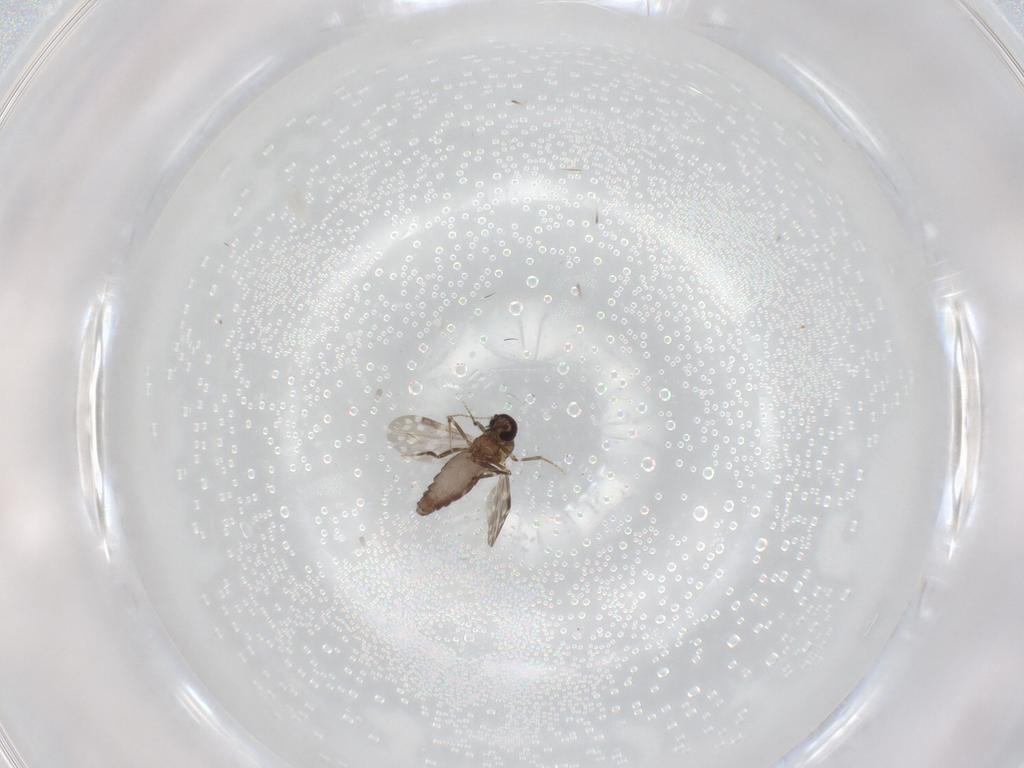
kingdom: Animalia
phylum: Arthropoda
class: Insecta
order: Diptera
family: Ceratopogonidae
